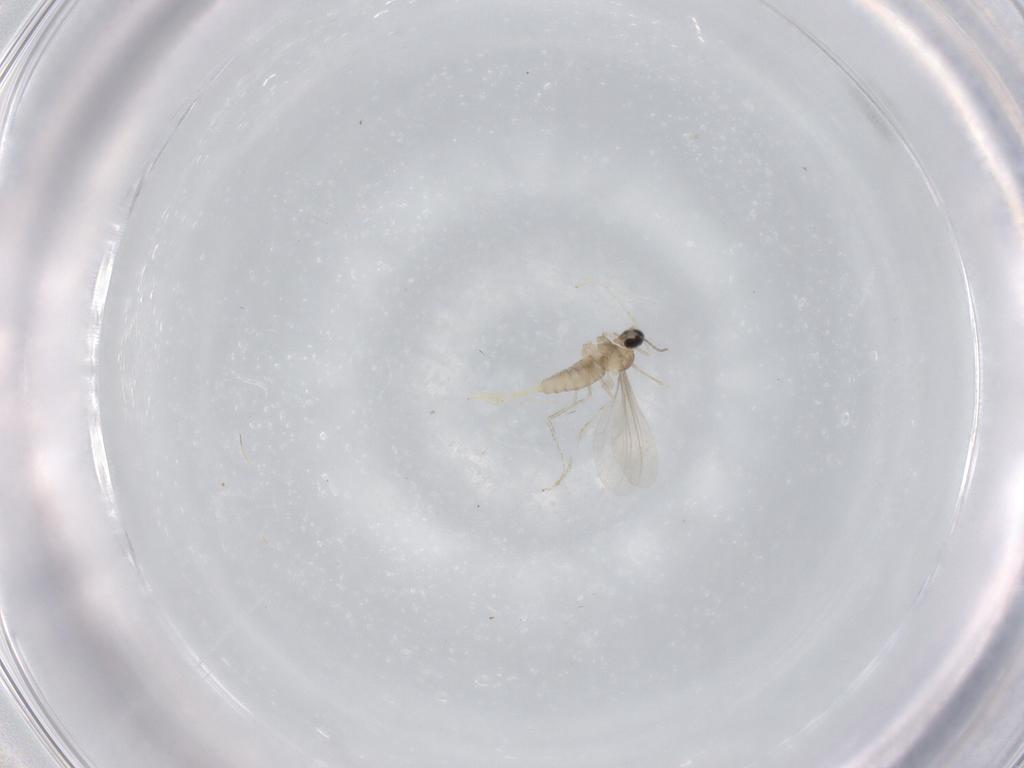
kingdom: Animalia
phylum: Arthropoda
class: Insecta
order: Diptera
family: Cecidomyiidae
